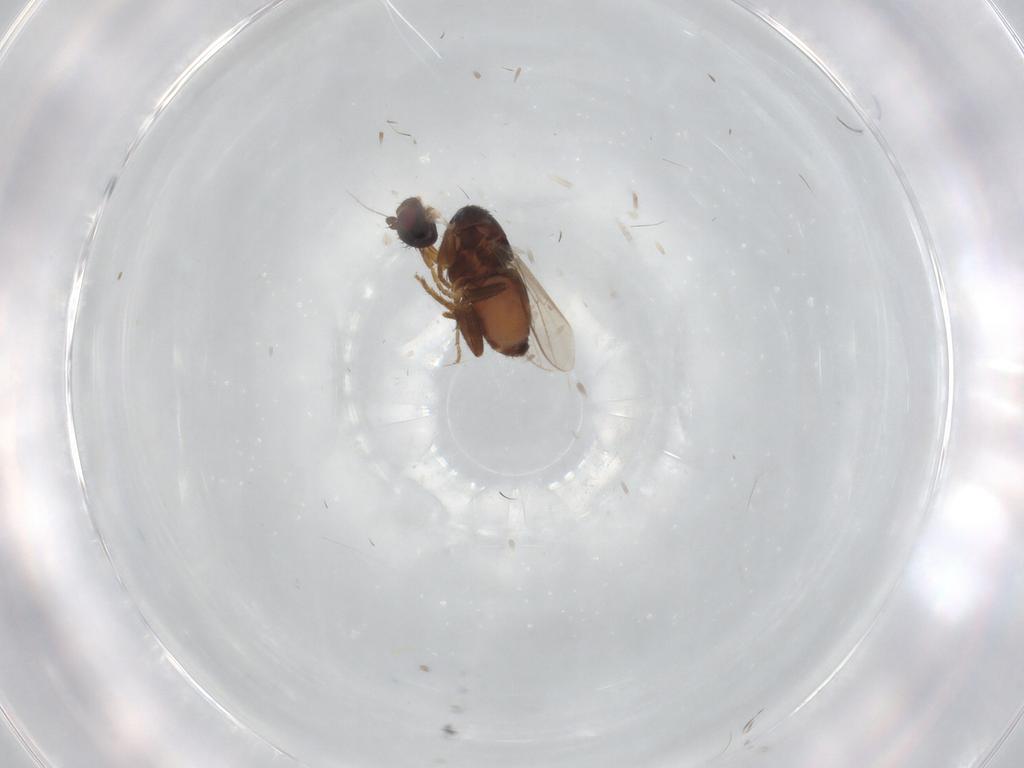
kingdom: Animalia
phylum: Arthropoda
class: Insecta
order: Diptera
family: Sphaeroceridae
